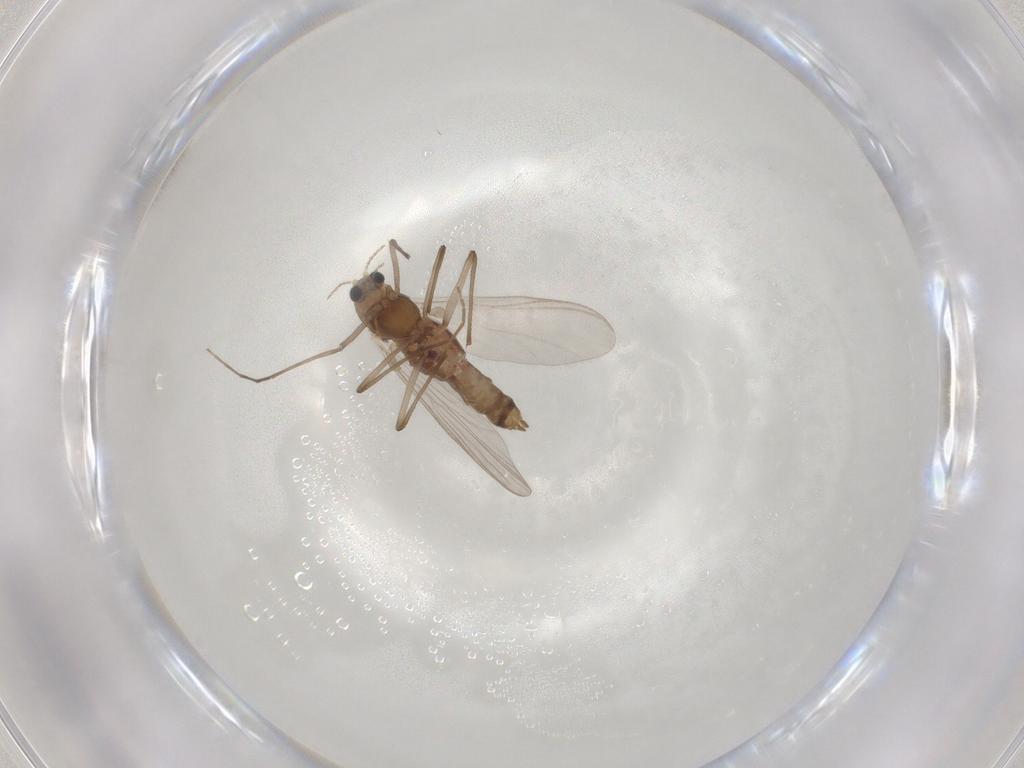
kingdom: Animalia
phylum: Arthropoda
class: Insecta
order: Diptera
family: Chironomidae
